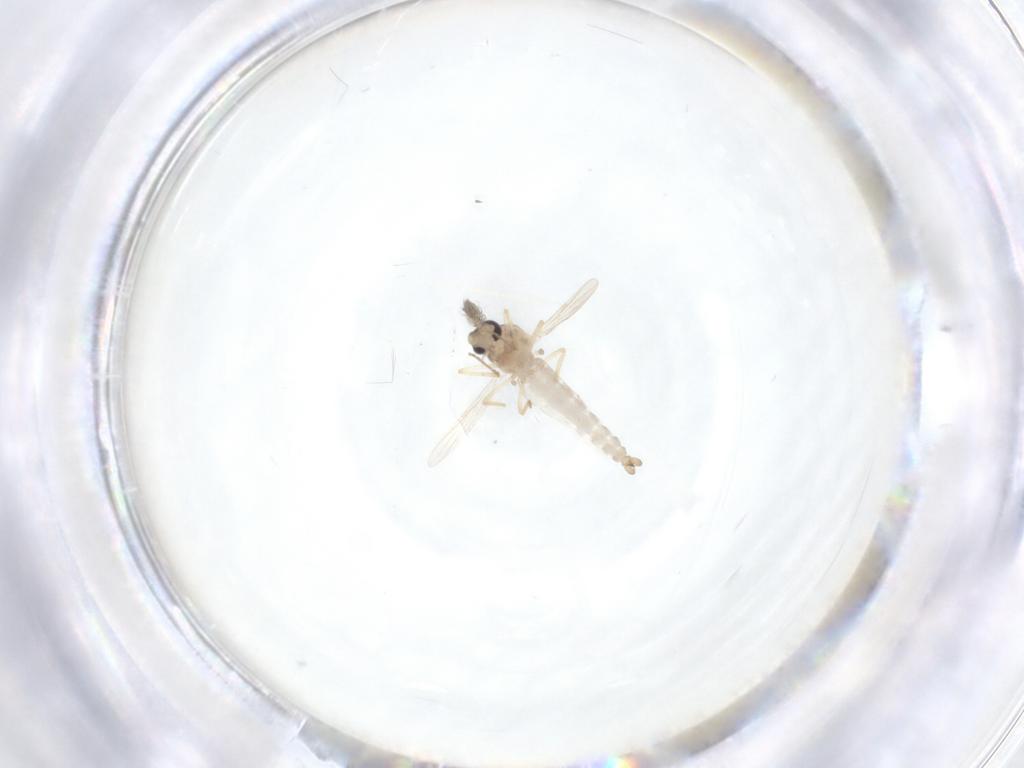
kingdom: Animalia
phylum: Arthropoda
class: Insecta
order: Diptera
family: Ceratopogonidae
